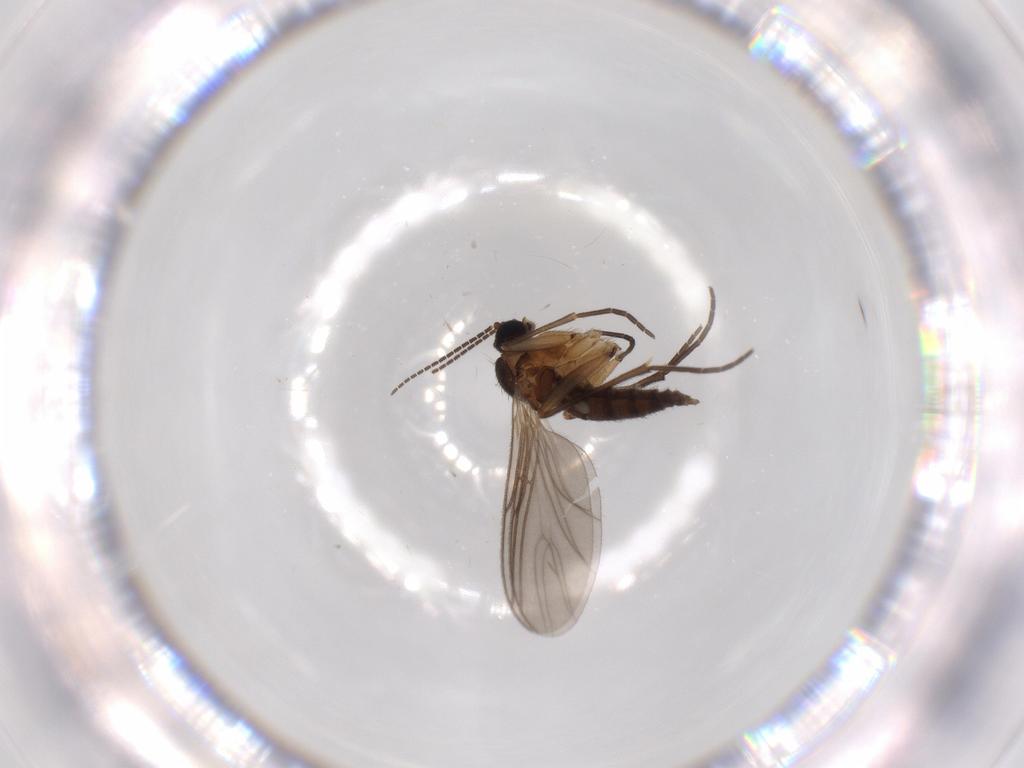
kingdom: Animalia
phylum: Arthropoda
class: Insecta
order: Diptera
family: Sciaridae
